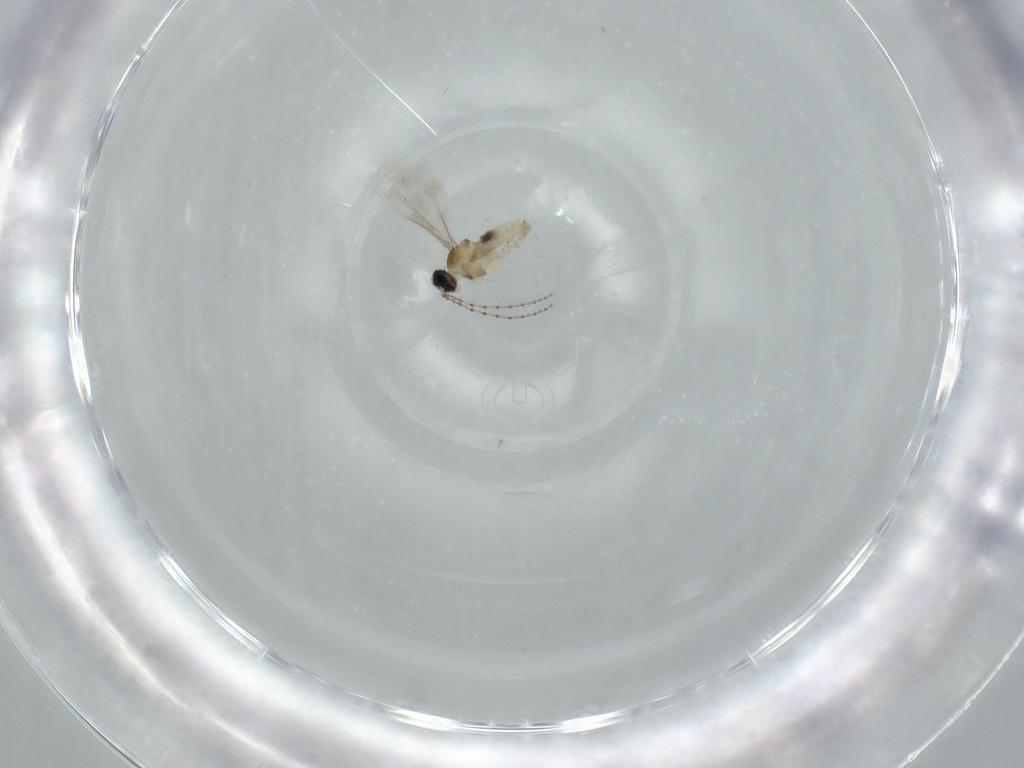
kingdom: Animalia
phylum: Arthropoda
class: Insecta
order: Diptera
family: Cecidomyiidae
